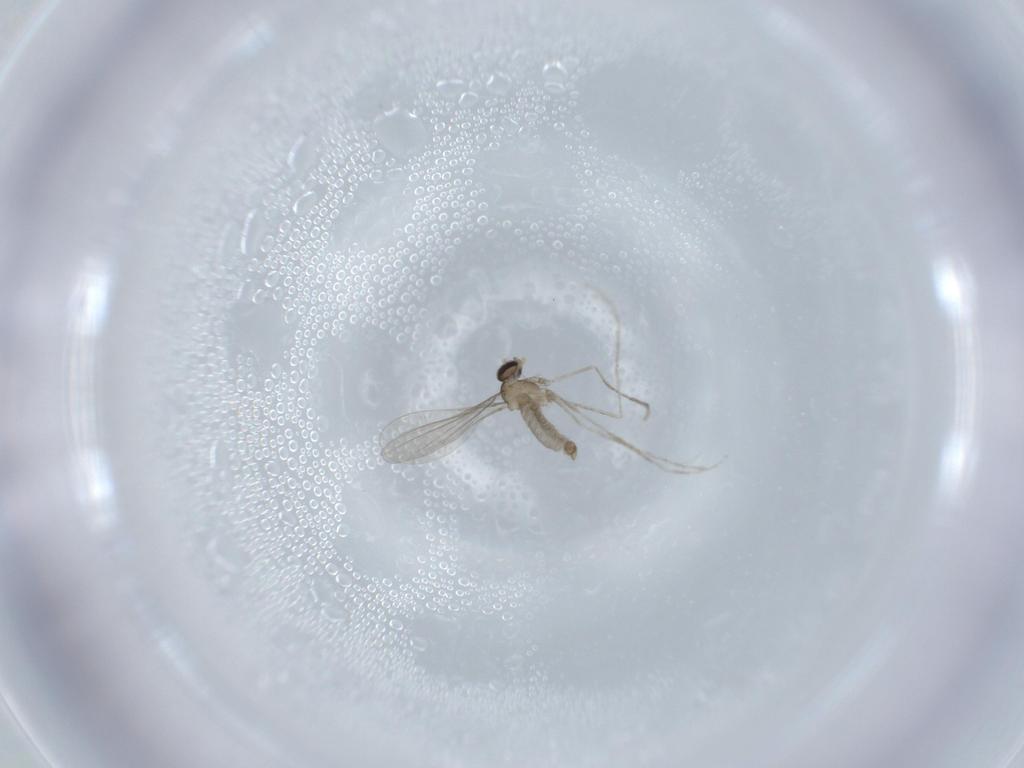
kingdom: Animalia
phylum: Arthropoda
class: Insecta
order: Diptera
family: Cecidomyiidae
